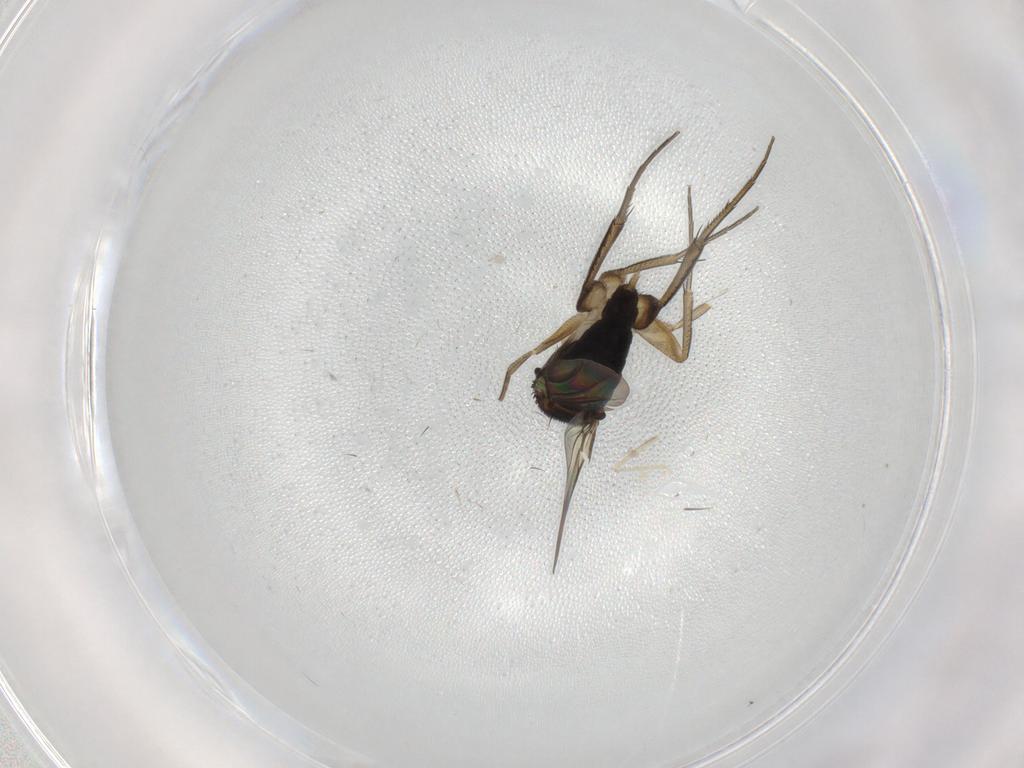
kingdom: Animalia
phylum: Arthropoda
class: Insecta
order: Diptera
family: Phoridae
